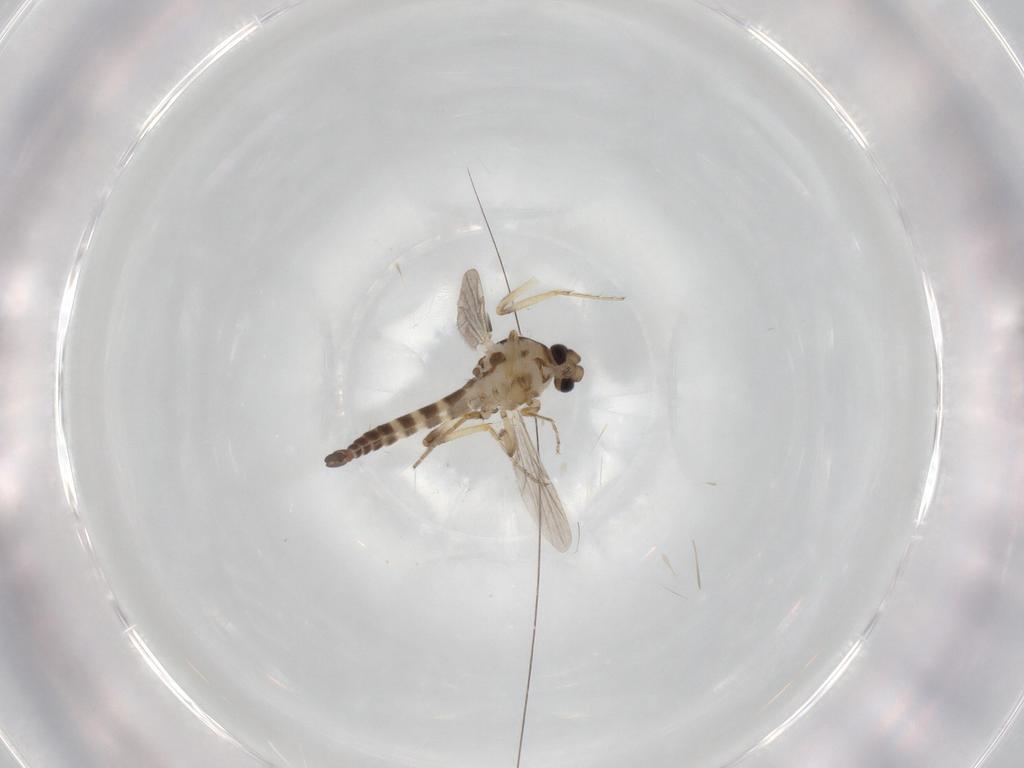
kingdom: Animalia
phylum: Arthropoda
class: Insecta
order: Diptera
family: Ceratopogonidae
